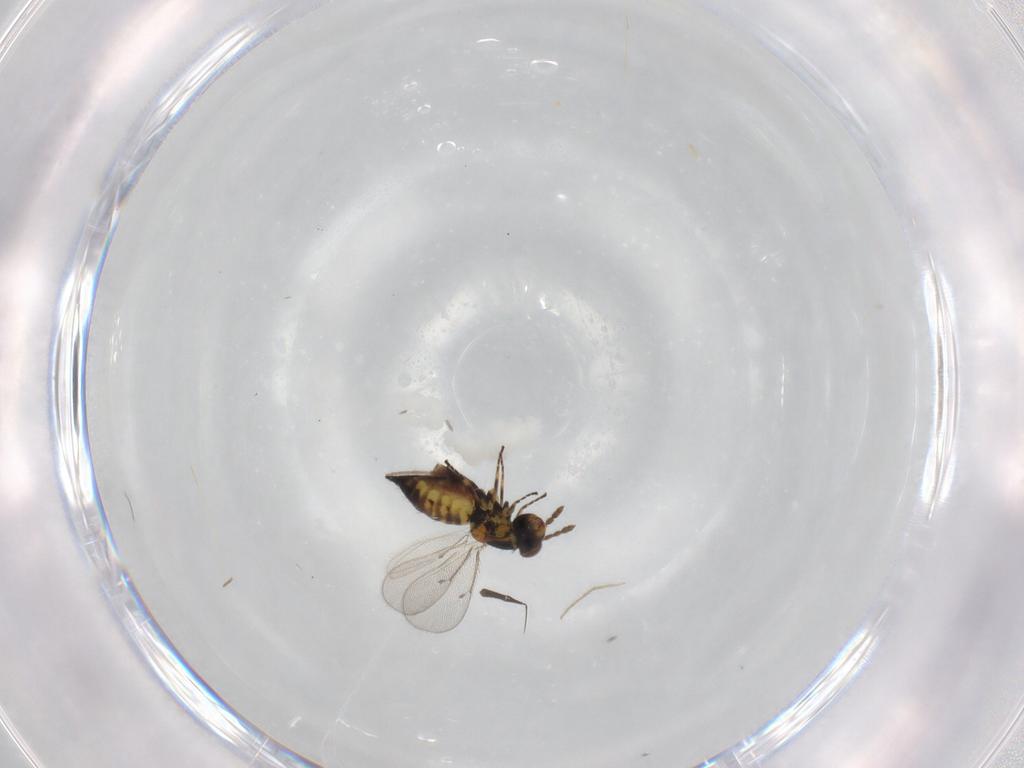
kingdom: Animalia
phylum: Arthropoda
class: Insecta
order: Hymenoptera
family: Eulophidae
